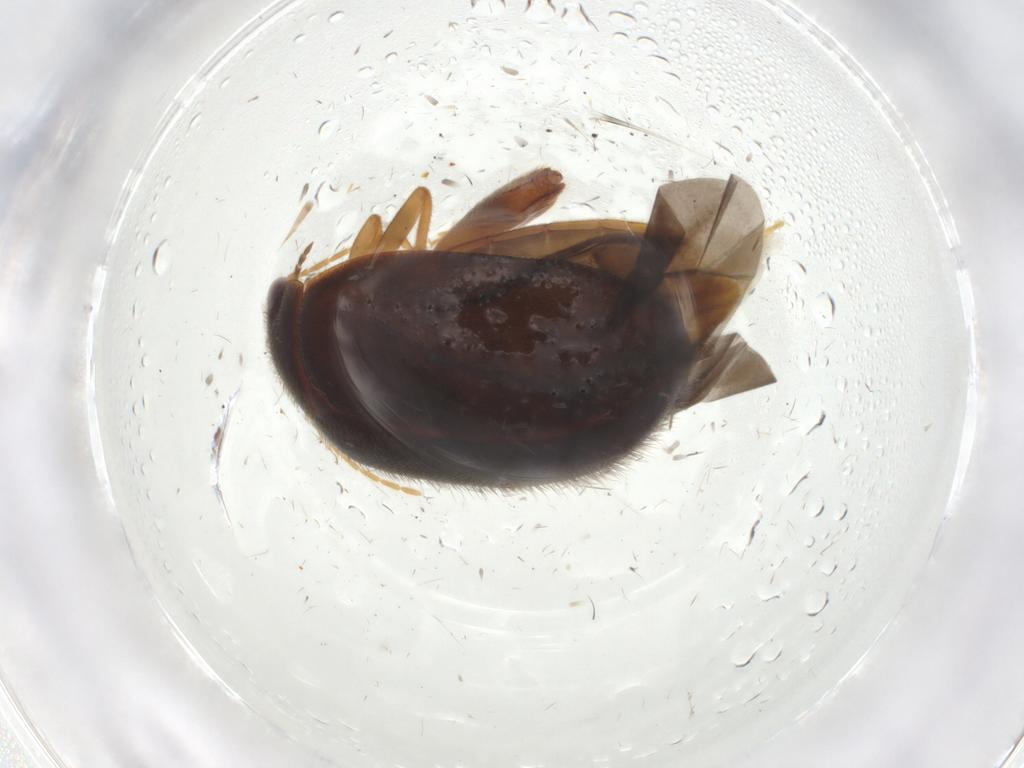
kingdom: Animalia
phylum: Arthropoda
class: Insecta
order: Coleoptera
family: Scirtidae
